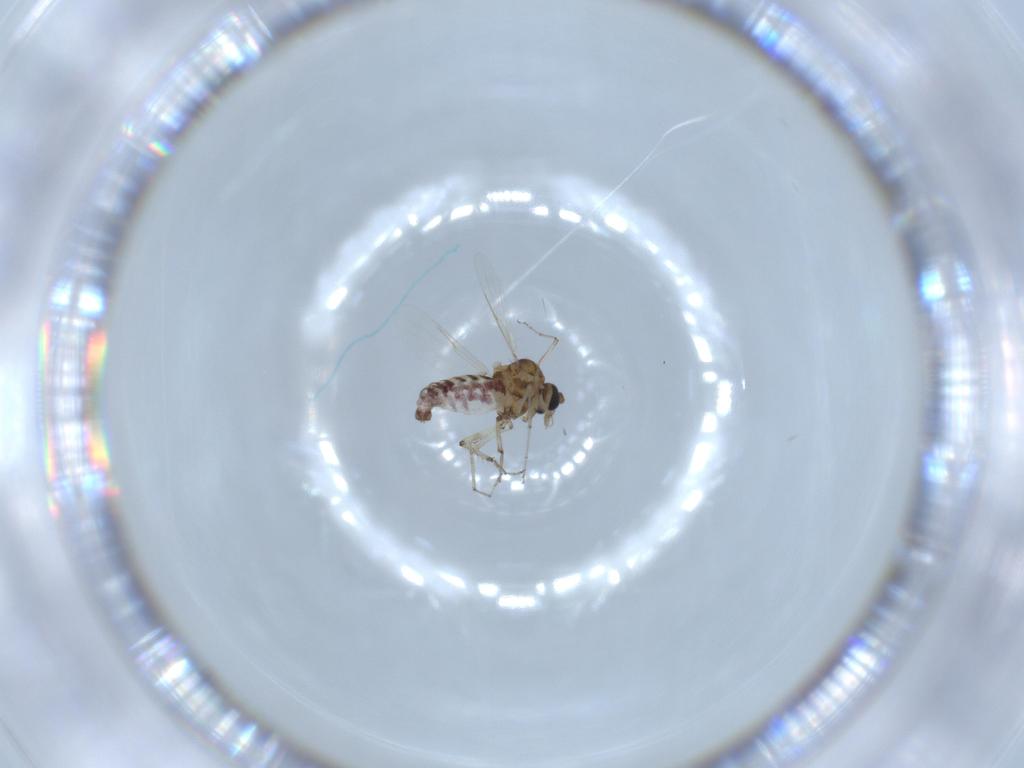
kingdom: Animalia
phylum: Arthropoda
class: Insecta
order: Diptera
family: Ceratopogonidae
